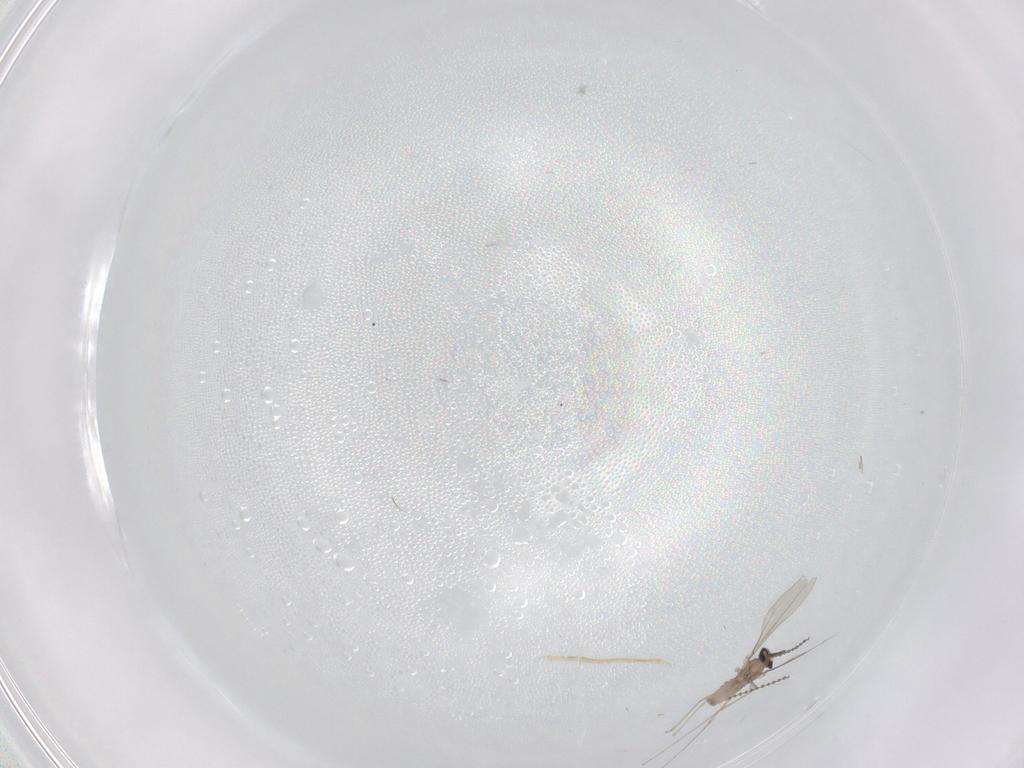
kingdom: Animalia
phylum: Arthropoda
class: Insecta
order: Diptera
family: Cecidomyiidae
